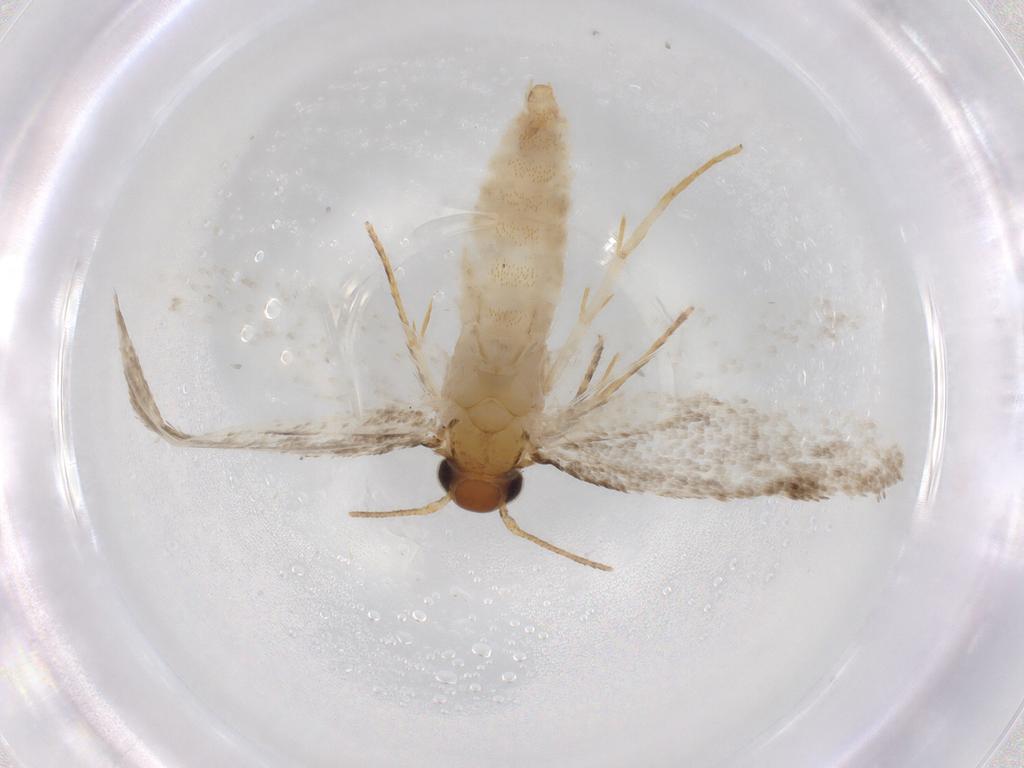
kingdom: Animalia
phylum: Arthropoda
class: Insecta
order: Lepidoptera
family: Oecophoridae
